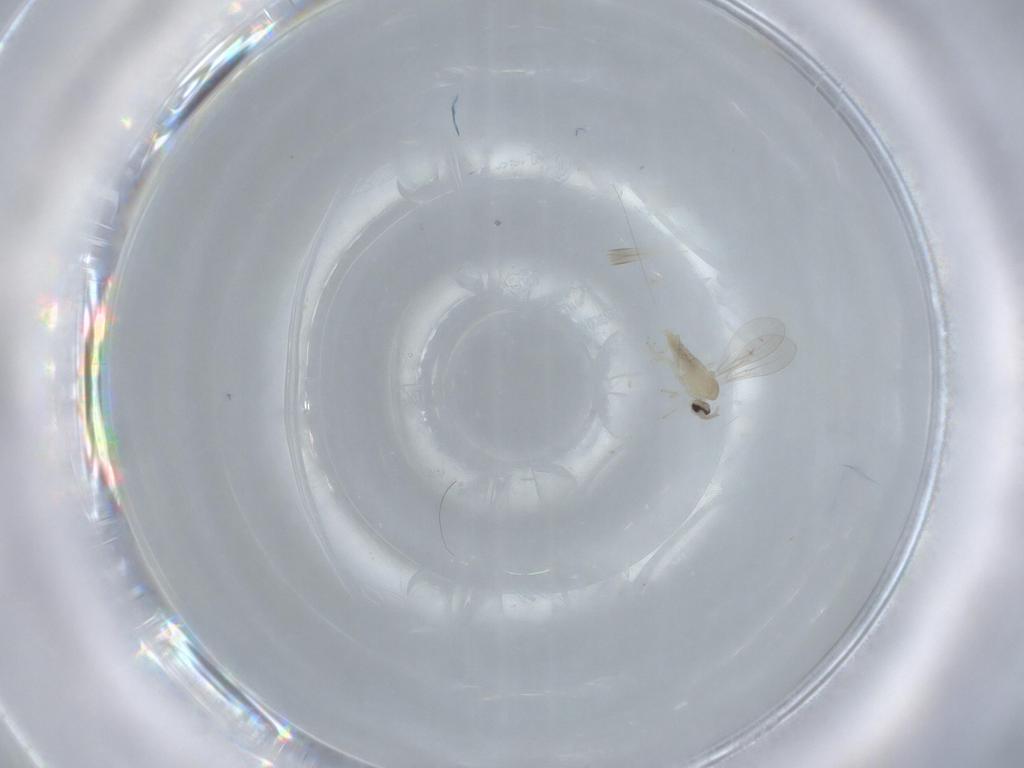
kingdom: Animalia
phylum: Arthropoda
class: Insecta
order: Diptera
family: Cecidomyiidae
